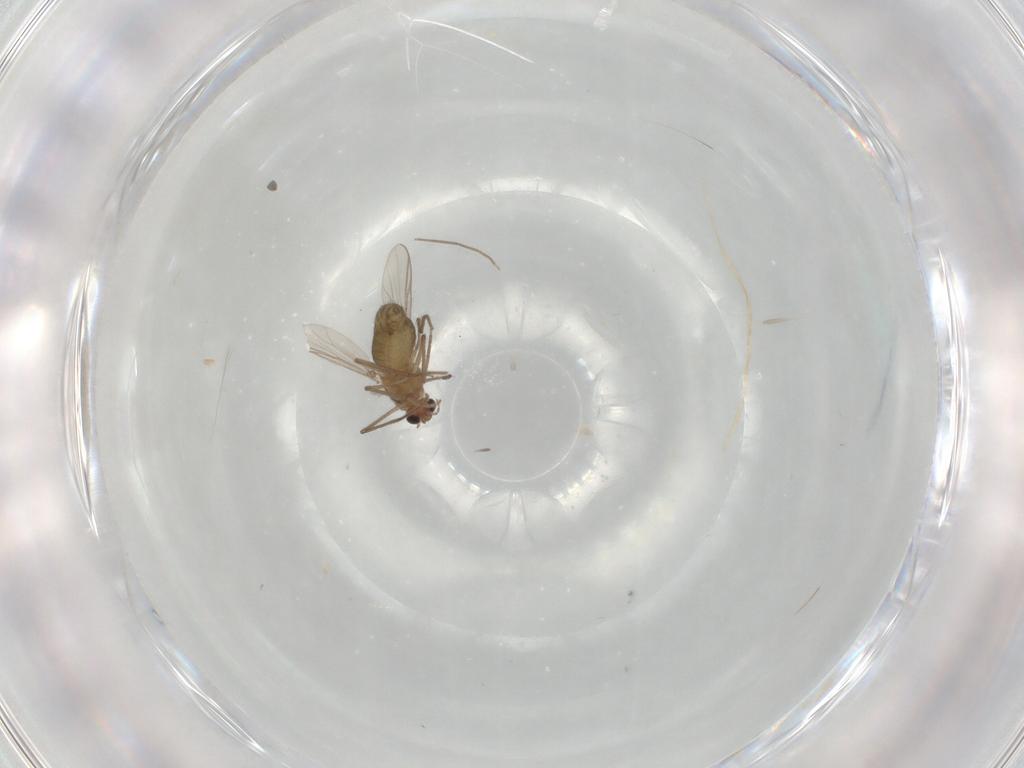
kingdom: Animalia
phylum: Arthropoda
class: Insecta
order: Diptera
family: Chironomidae
